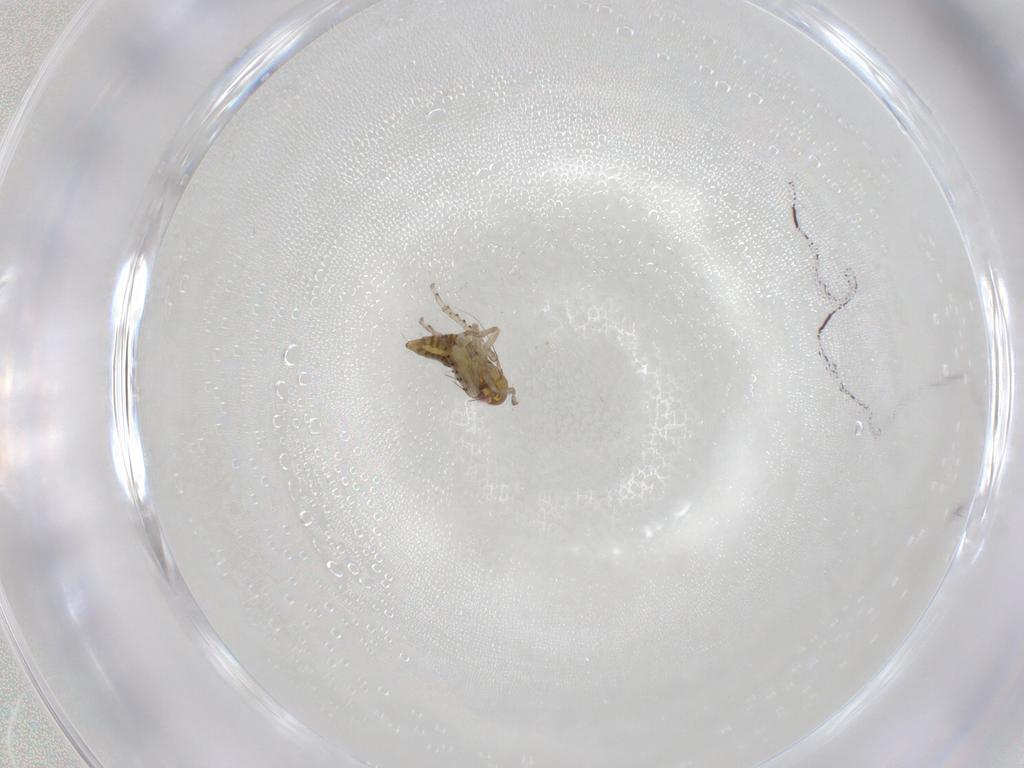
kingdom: Animalia
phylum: Arthropoda
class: Insecta
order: Hemiptera
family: Cicadellidae
